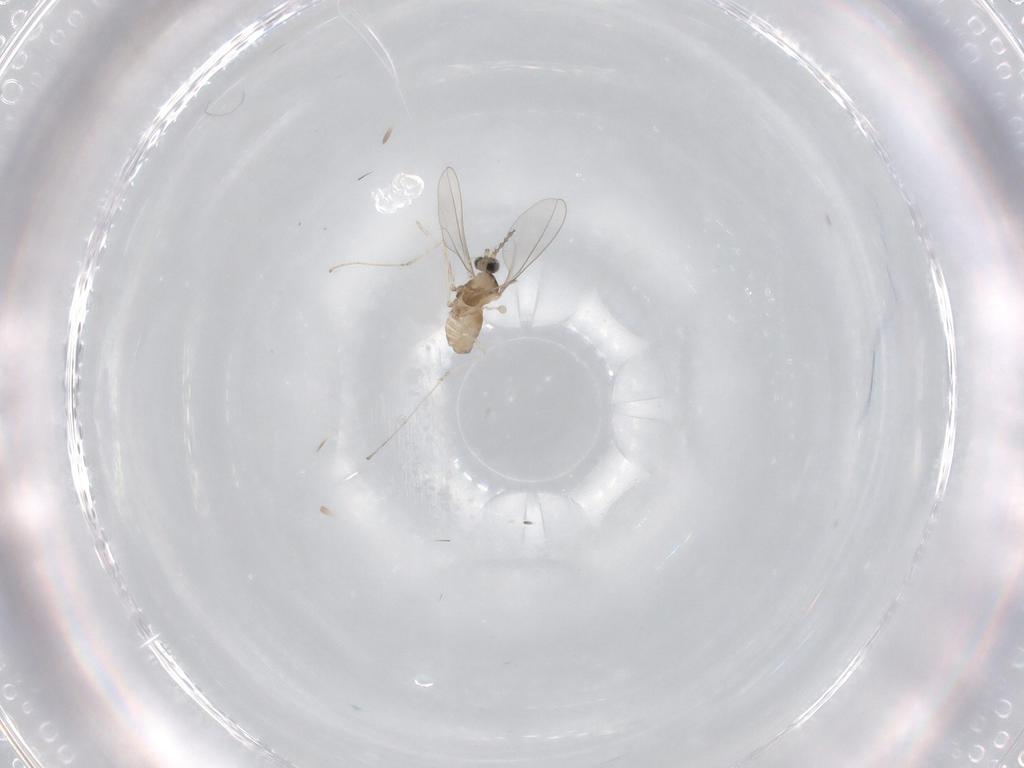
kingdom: Animalia
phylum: Arthropoda
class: Insecta
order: Diptera
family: Cecidomyiidae
